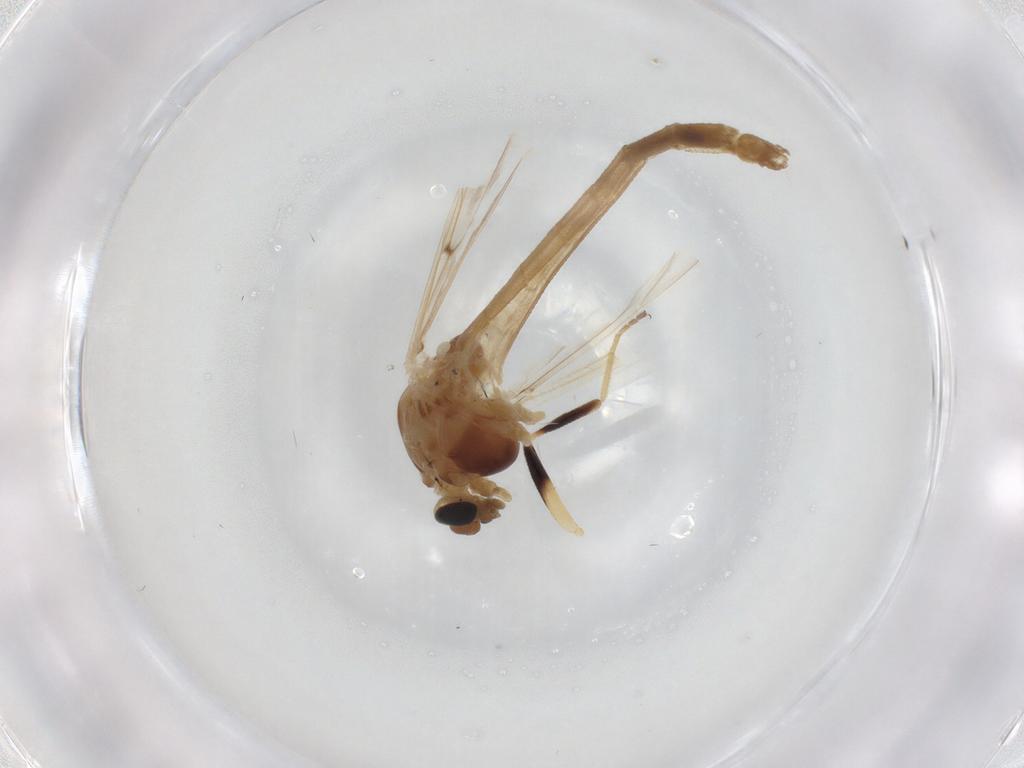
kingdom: Animalia
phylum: Arthropoda
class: Insecta
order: Diptera
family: Chironomidae
